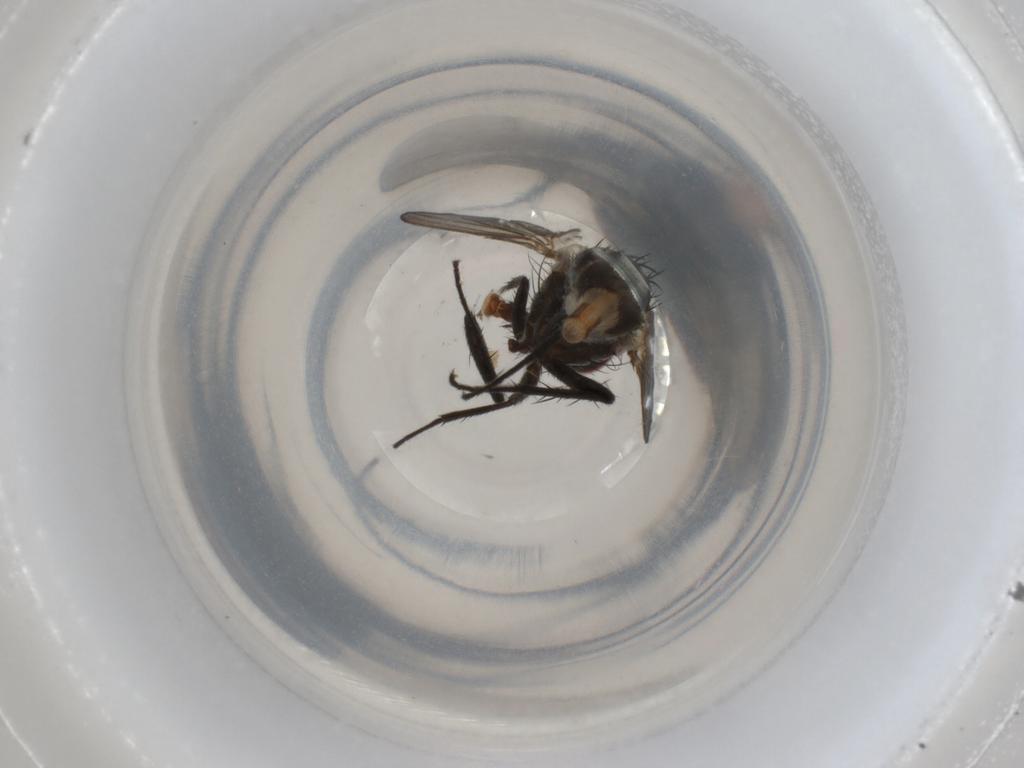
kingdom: Animalia
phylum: Arthropoda
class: Insecta
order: Diptera
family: Tachinidae
